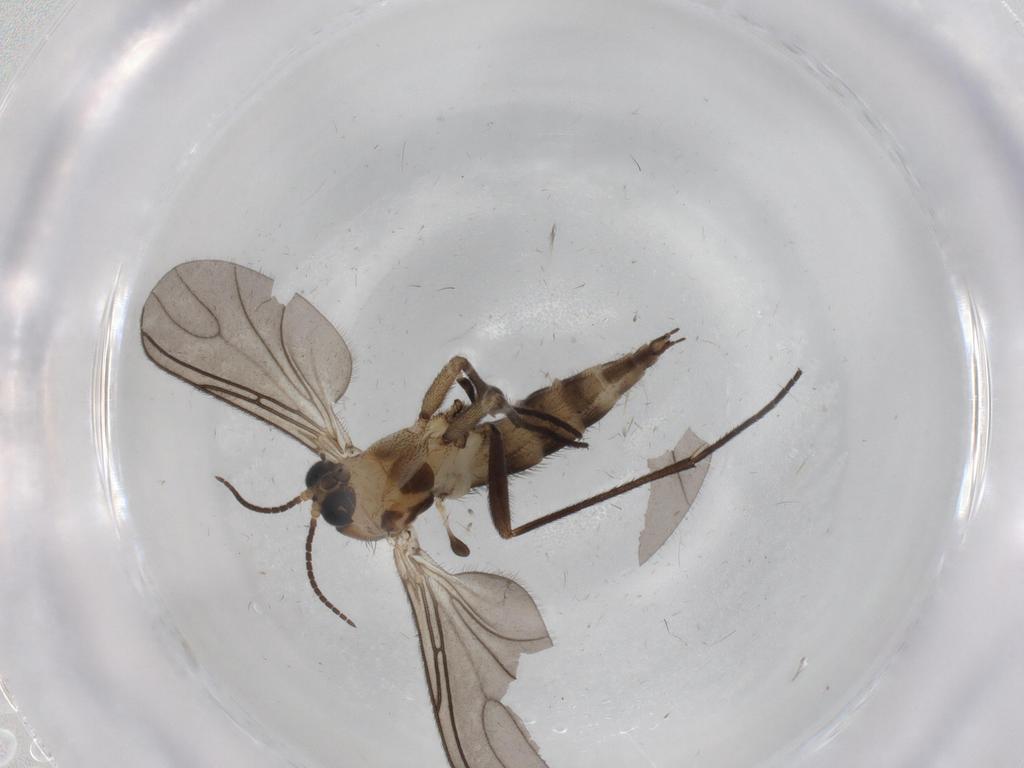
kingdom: Animalia
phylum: Arthropoda
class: Insecta
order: Diptera
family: Sciaridae
